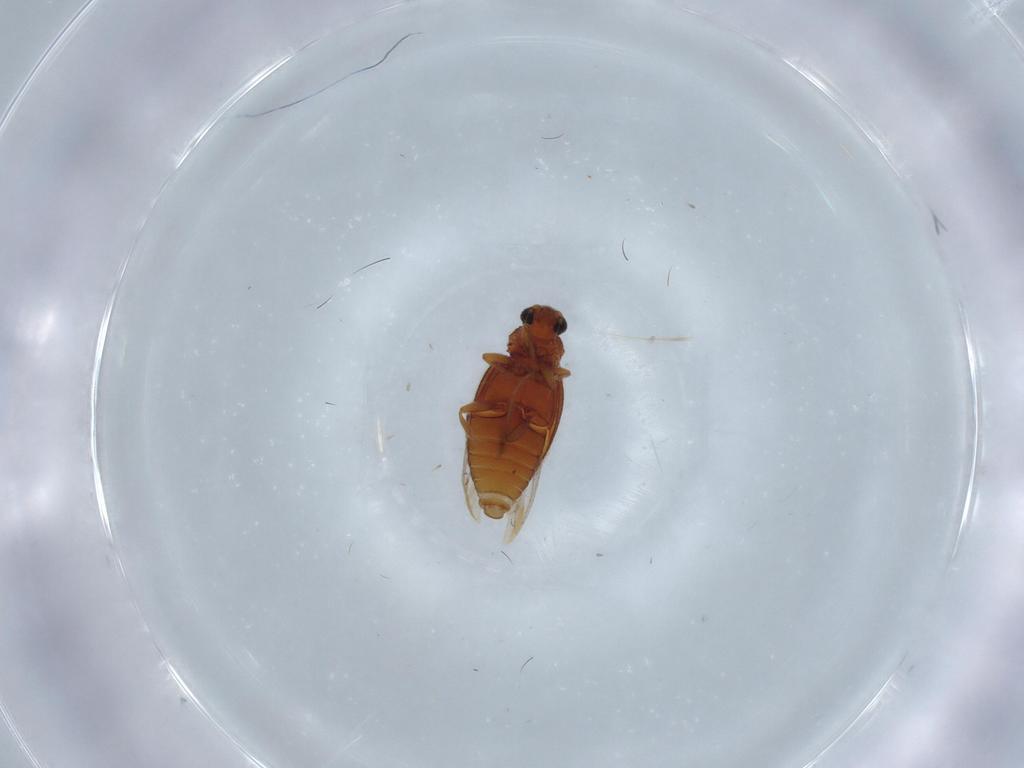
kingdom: Animalia
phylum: Arthropoda
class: Insecta
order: Coleoptera
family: Latridiidae
